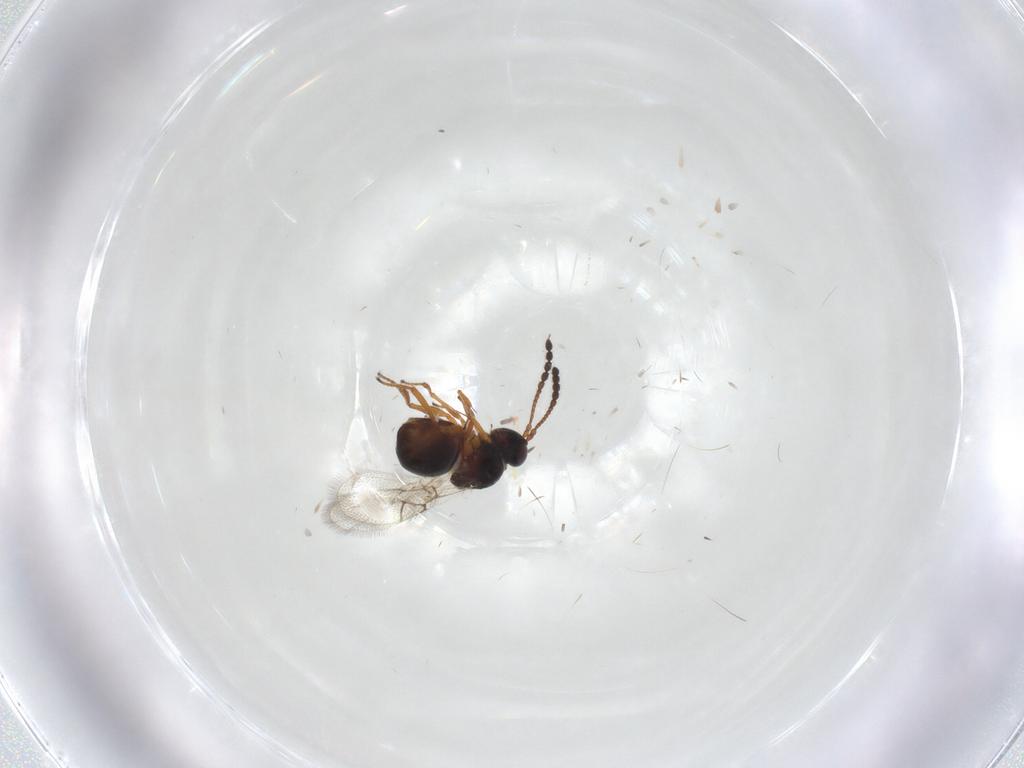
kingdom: Animalia
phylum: Arthropoda
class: Insecta
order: Hymenoptera
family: Figitidae
